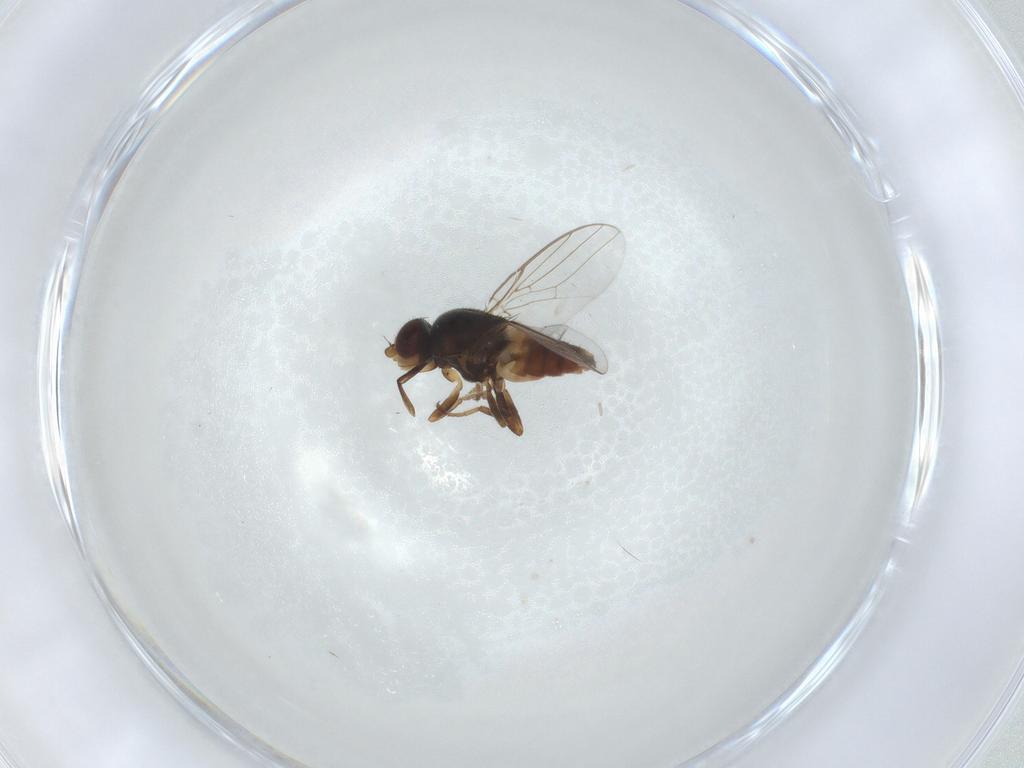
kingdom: Animalia
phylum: Arthropoda
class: Insecta
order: Diptera
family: Chloropidae
